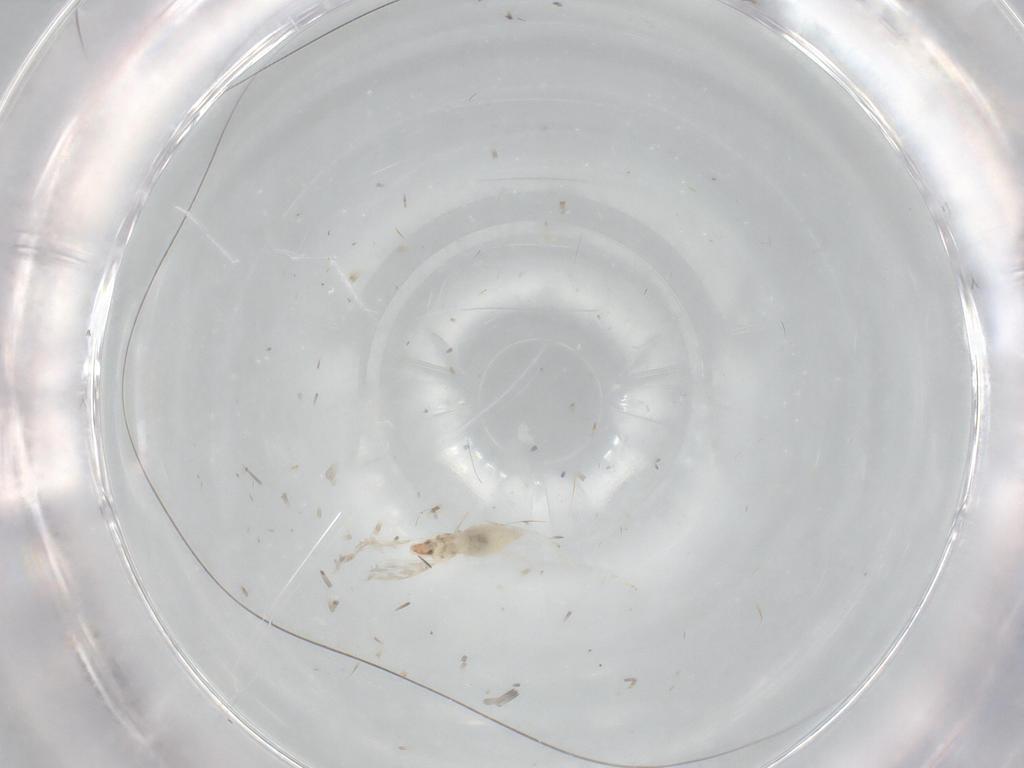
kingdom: Animalia
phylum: Arthropoda
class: Insecta
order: Diptera
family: Cecidomyiidae
